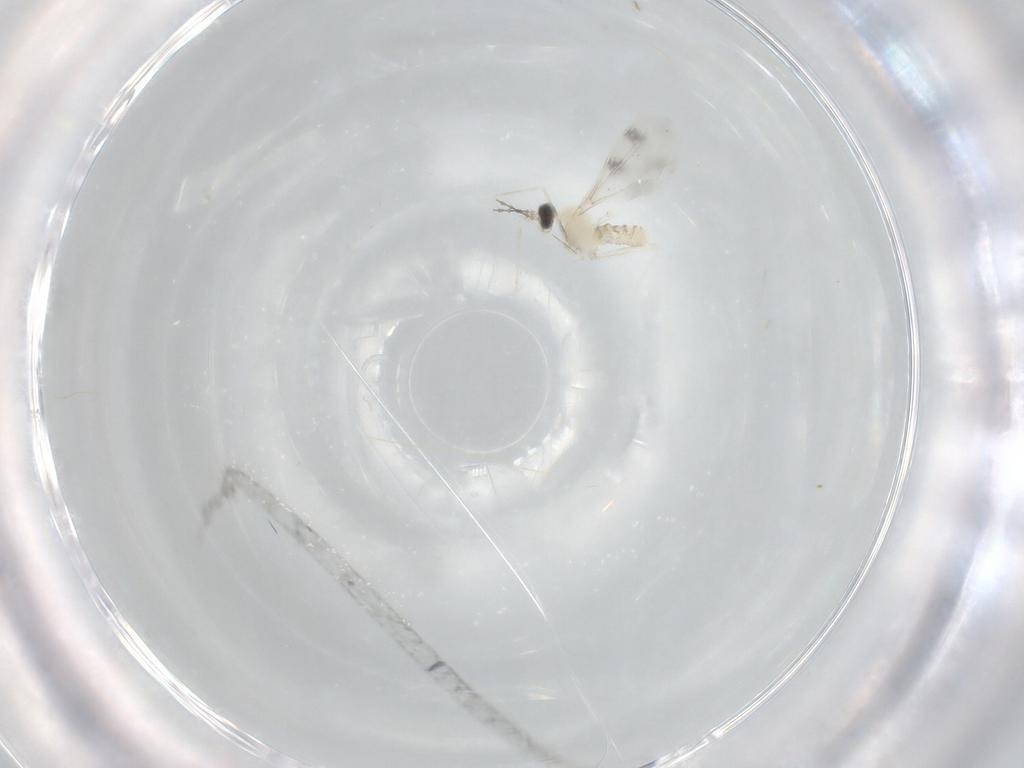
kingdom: Animalia
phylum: Arthropoda
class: Insecta
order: Diptera
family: Cecidomyiidae
